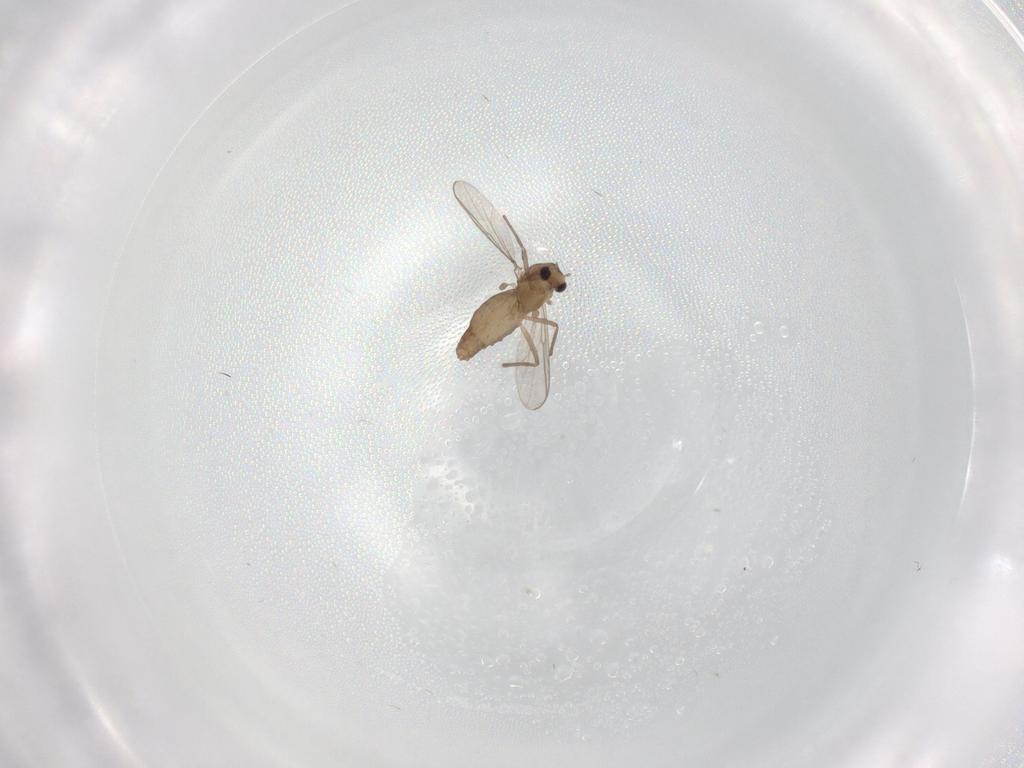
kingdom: Animalia
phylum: Arthropoda
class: Insecta
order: Diptera
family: Chironomidae
